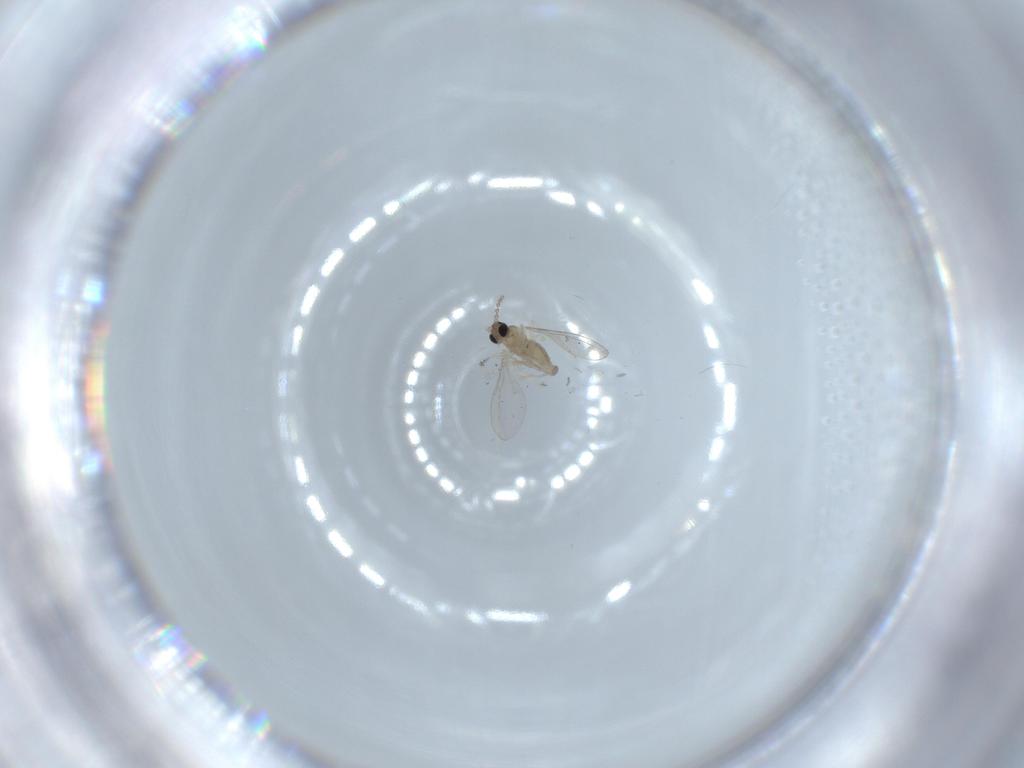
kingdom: Animalia
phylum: Arthropoda
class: Insecta
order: Diptera
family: Cecidomyiidae
